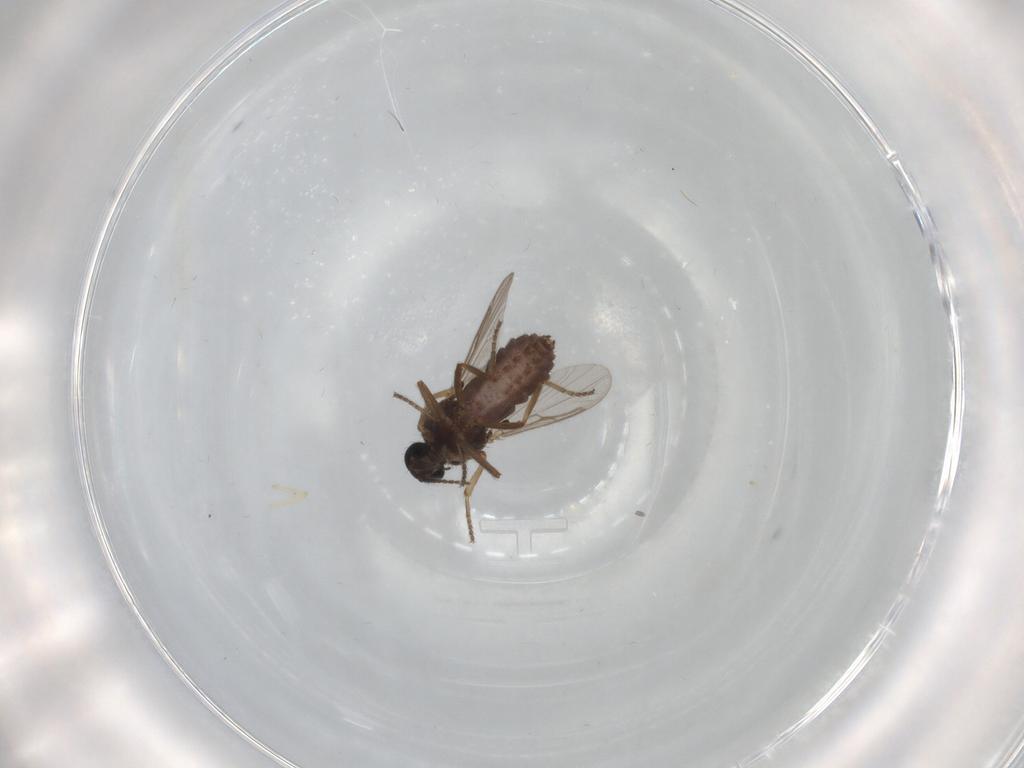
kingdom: Animalia
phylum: Arthropoda
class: Insecta
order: Diptera
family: Ceratopogonidae
